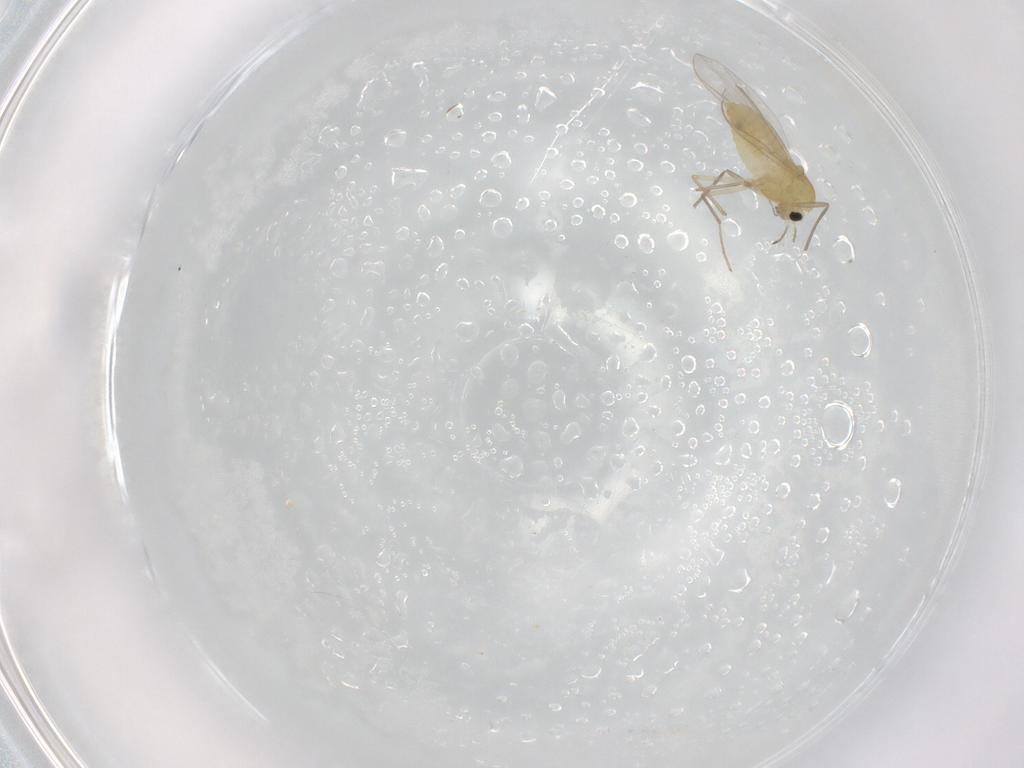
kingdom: Animalia
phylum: Arthropoda
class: Insecta
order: Diptera
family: Chironomidae
